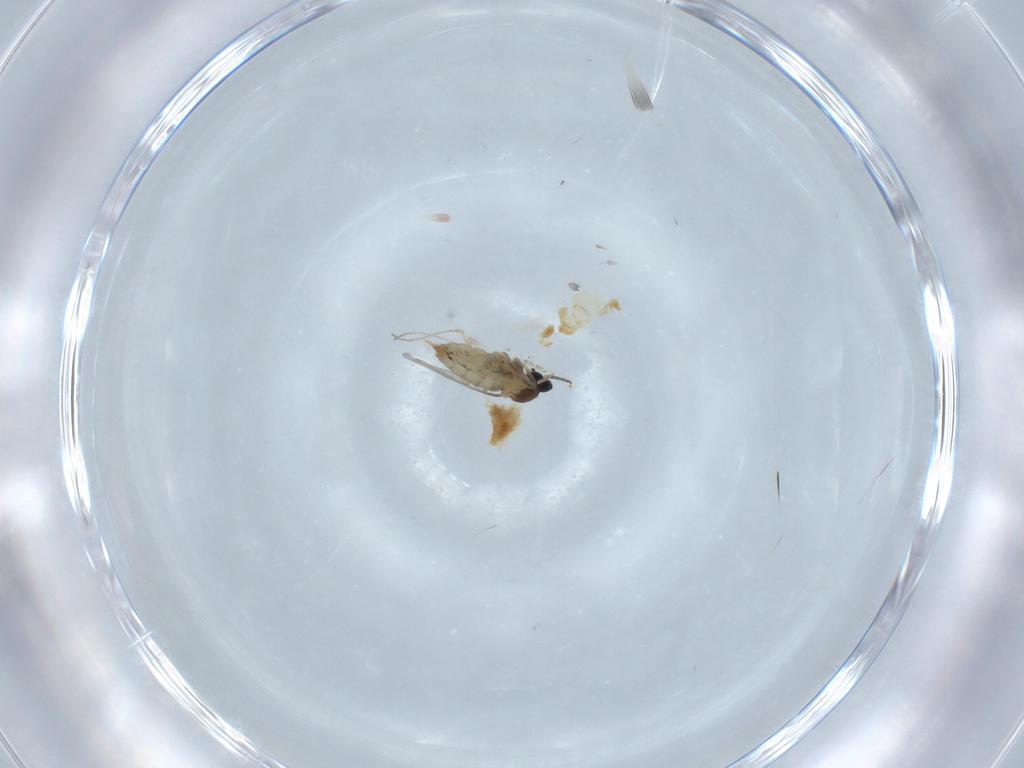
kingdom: Animalia
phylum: Arthropoda
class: Insecta
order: Diptera
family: Cecidomyiidae
